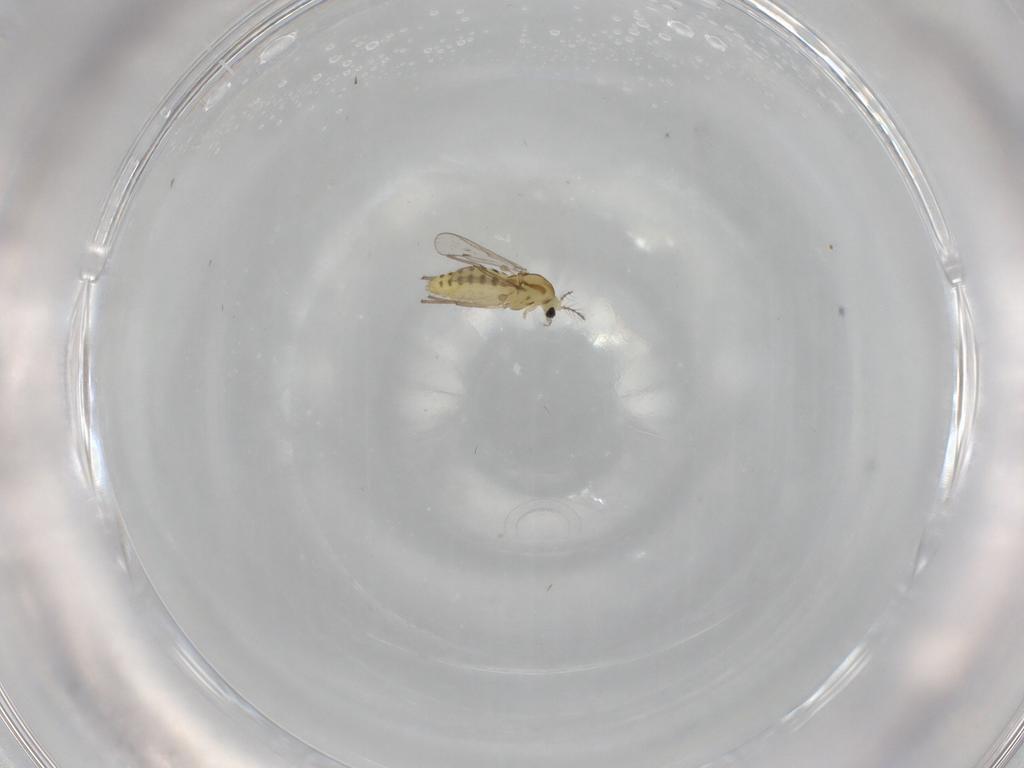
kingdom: Animalia
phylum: Arthropoda
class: Insecta
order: Diptera
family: Chironomidae
